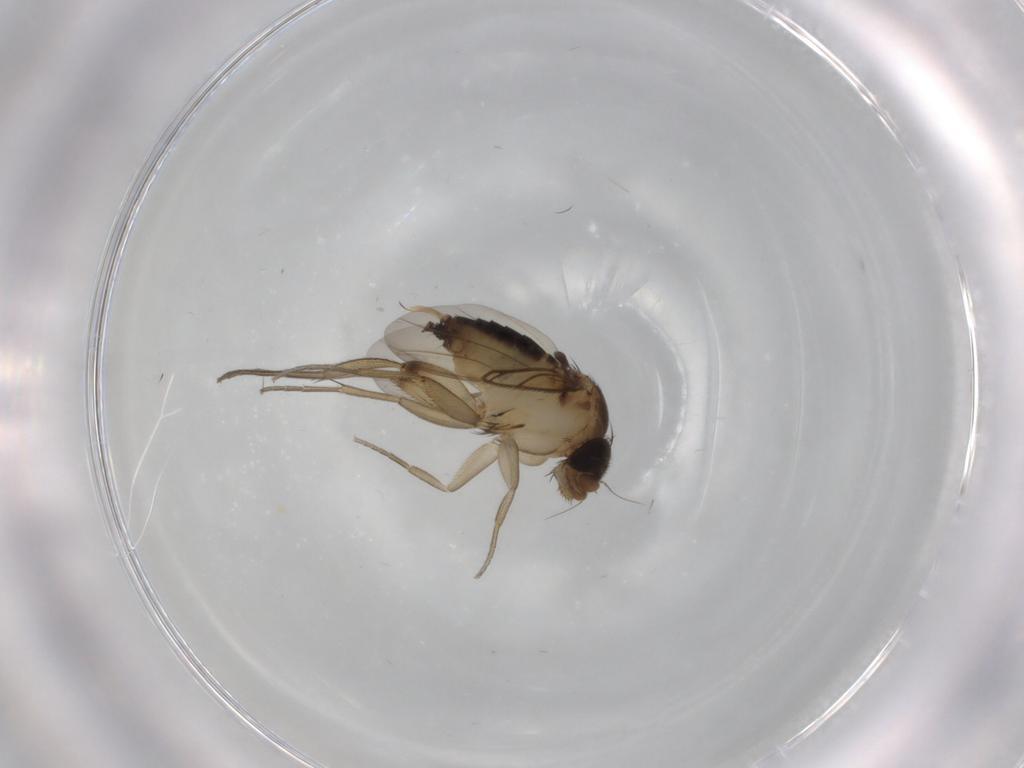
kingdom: Animalia
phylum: Arthropoda
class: Insecta
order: Diptera
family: Phoridae
